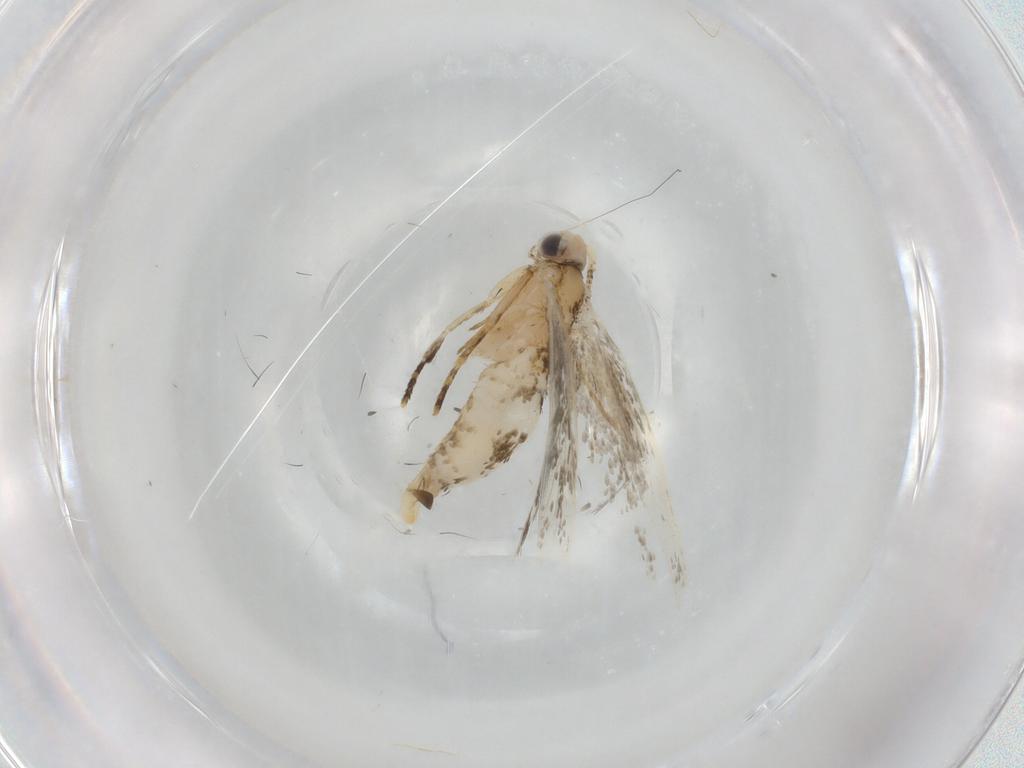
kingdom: Animalia
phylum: Arthropoda
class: Insecta
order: Lepidoptera
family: Tineidae
